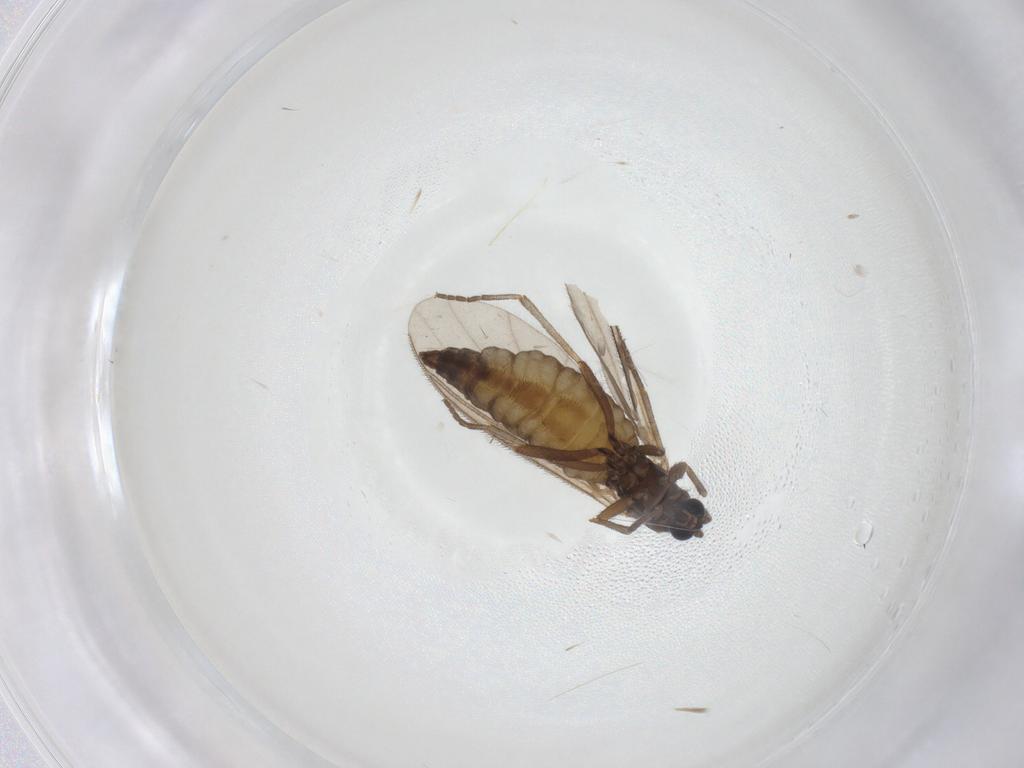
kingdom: Animalia
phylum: Arthropoda
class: Insecta
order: Diptera
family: Sciaridae
